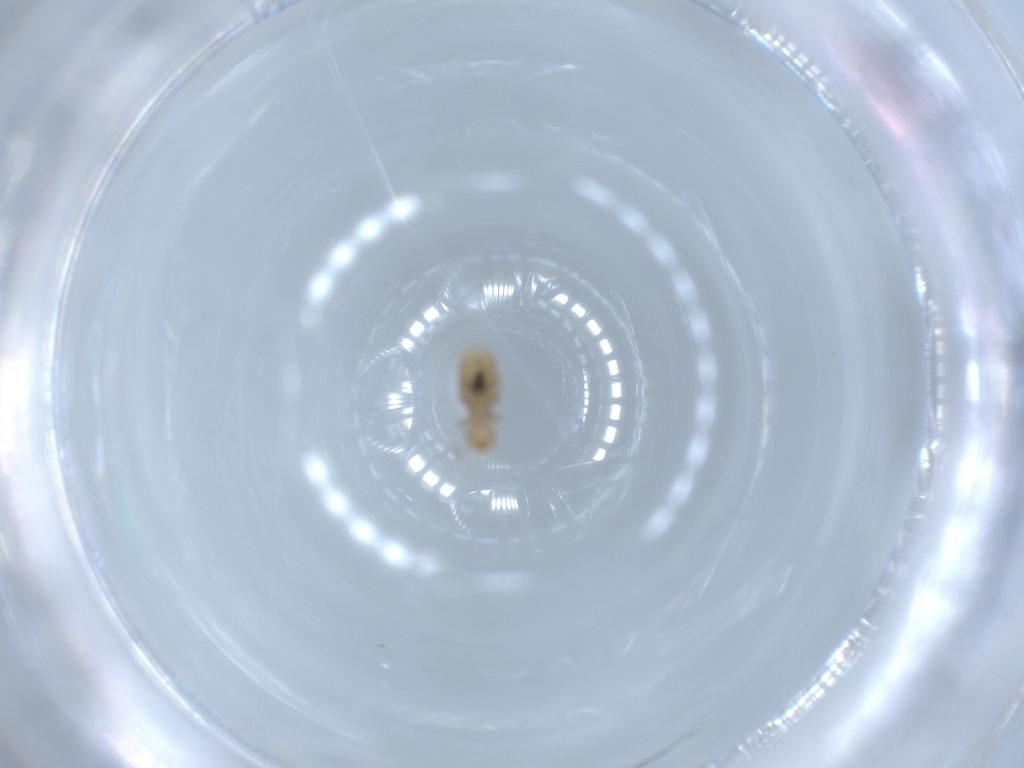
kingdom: Animalia
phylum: Arthropoda
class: Insecta
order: Psocodea
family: Liposcelididae
